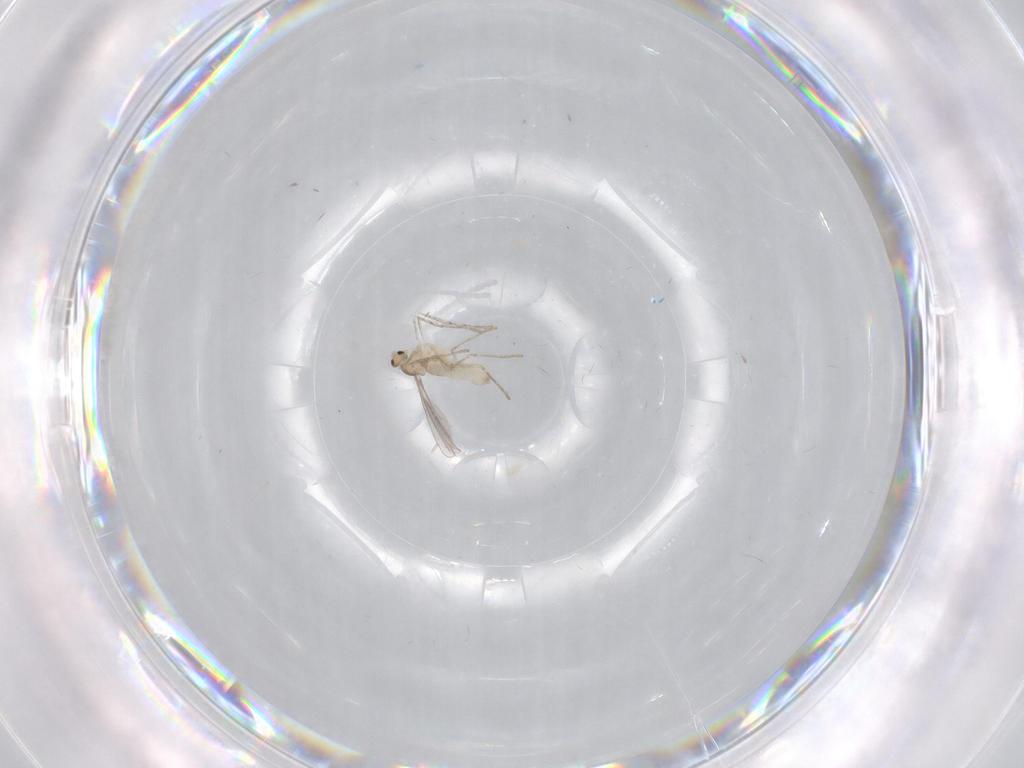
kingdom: Animalia
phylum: Arthropoda
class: Insecta
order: Diptera
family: Cecidomyiidae
